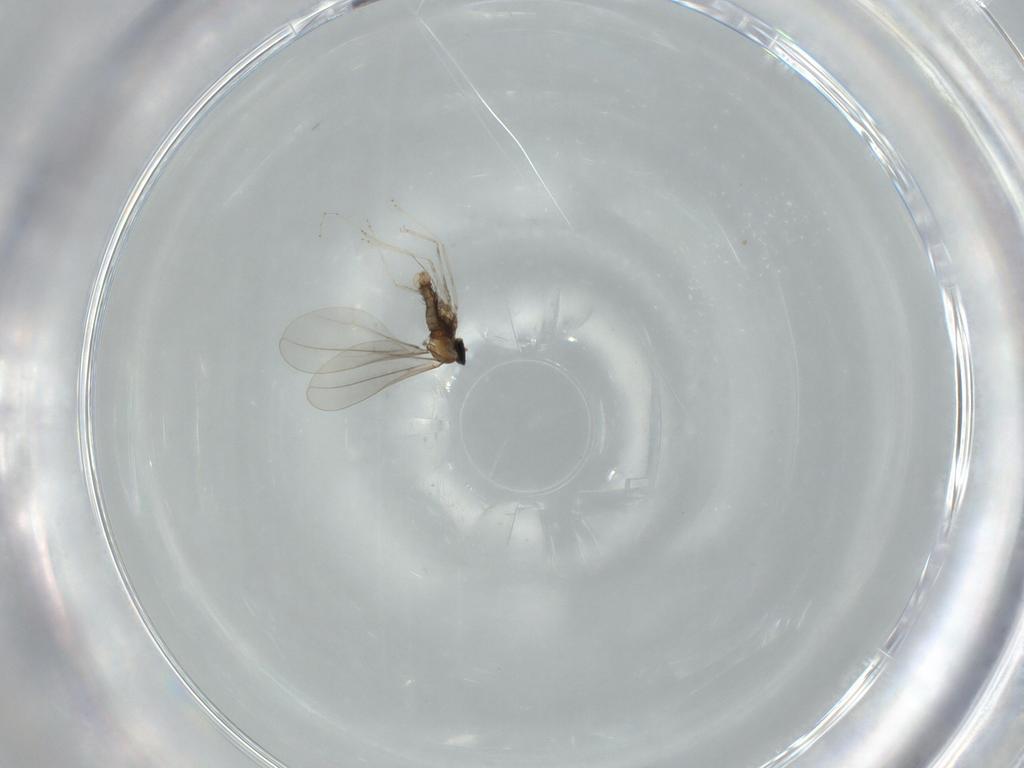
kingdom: Animalia
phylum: Arthropoda
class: Insecta
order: Diptera
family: Cecidomyiidae
